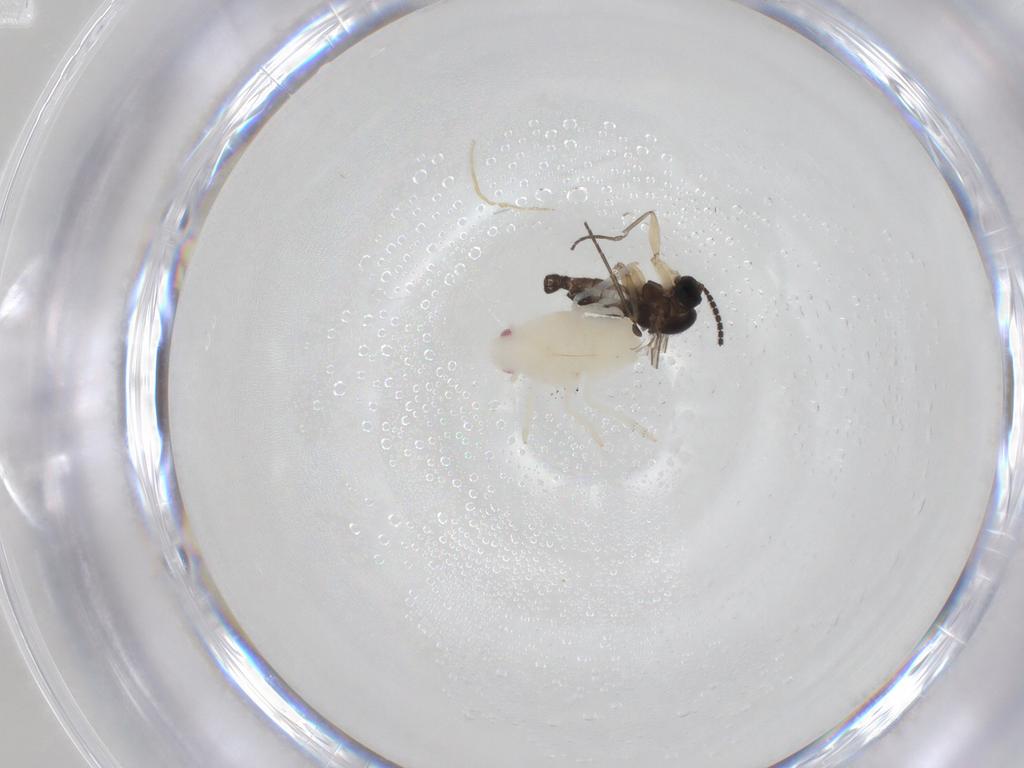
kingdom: Animalia
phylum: Arthropoda
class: Insecta
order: Diptera
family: Sciaridae
